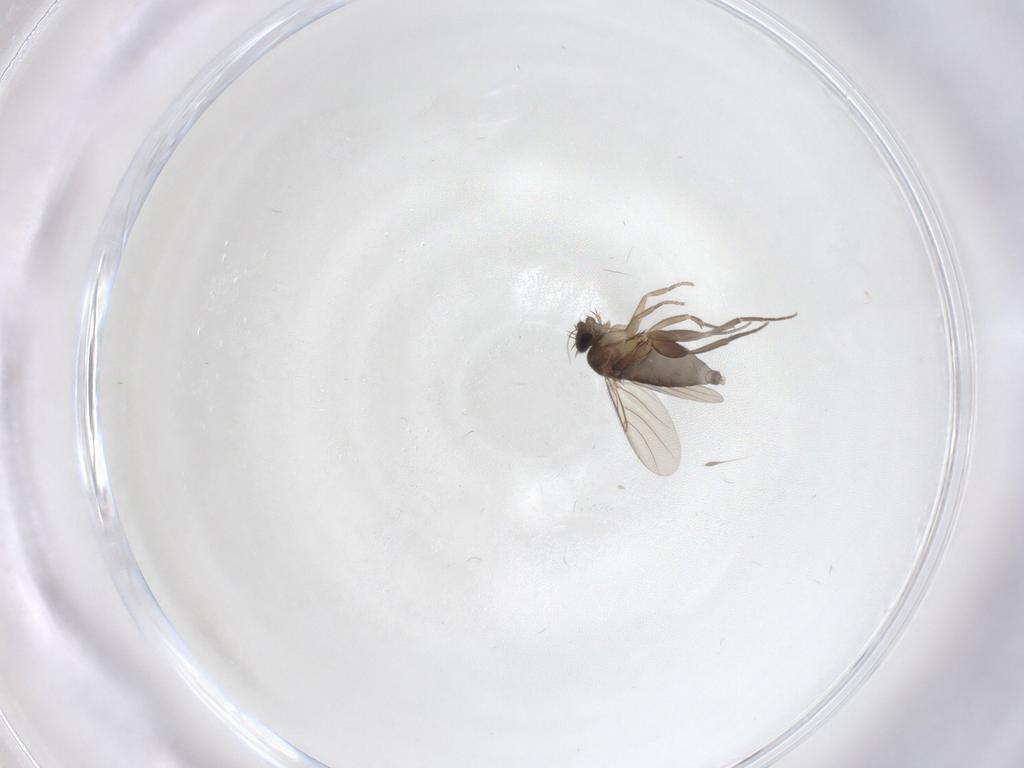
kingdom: Animalia
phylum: Arthropoda
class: Insecta
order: Diptera
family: Phoridae
